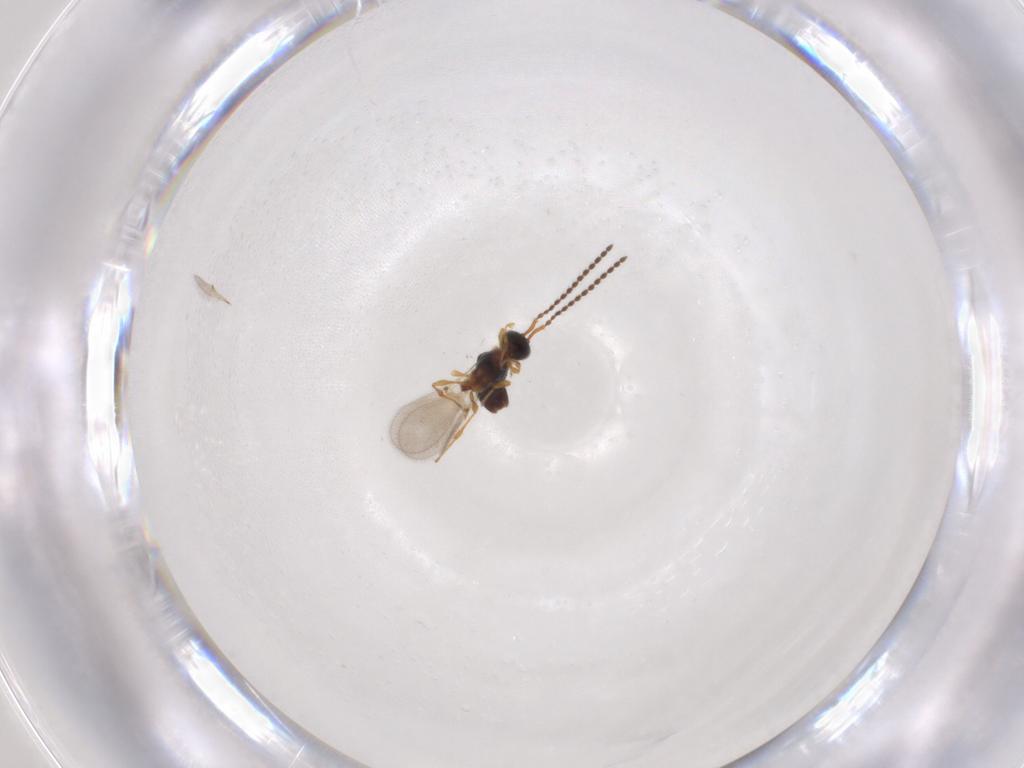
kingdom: Animalia
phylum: Arthropoda
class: Insecta
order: Hymenoptera
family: Diapriidae
